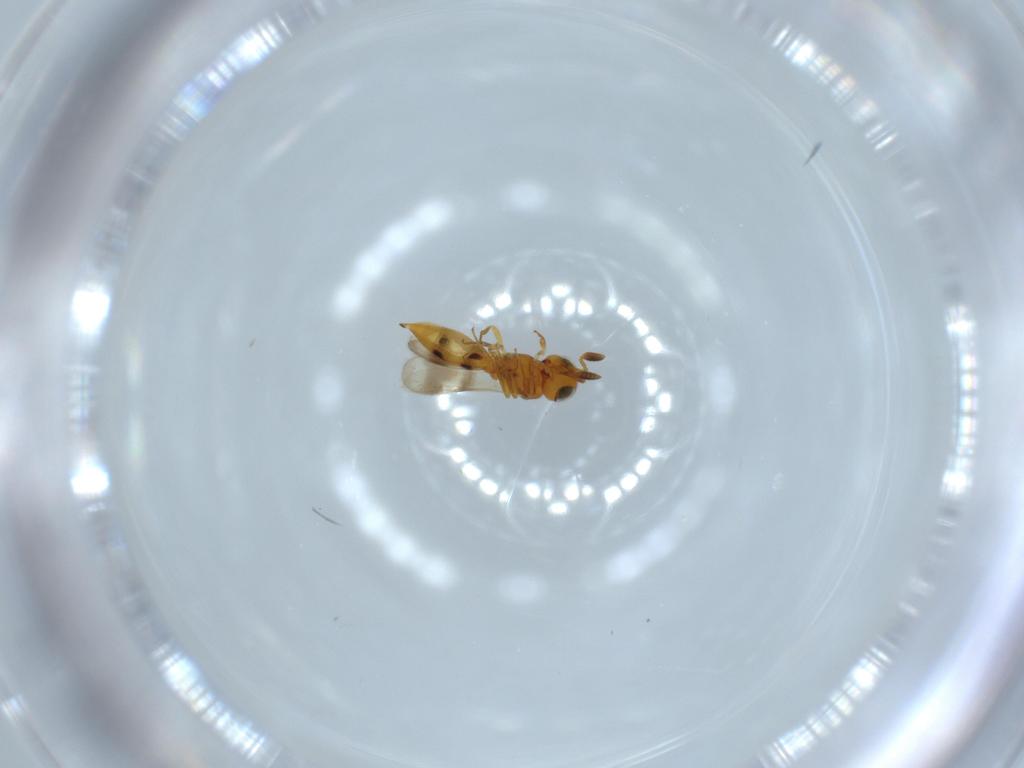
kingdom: Animalia
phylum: Arthropoda
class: Insecta
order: Hymenoptera
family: Scelionidae
